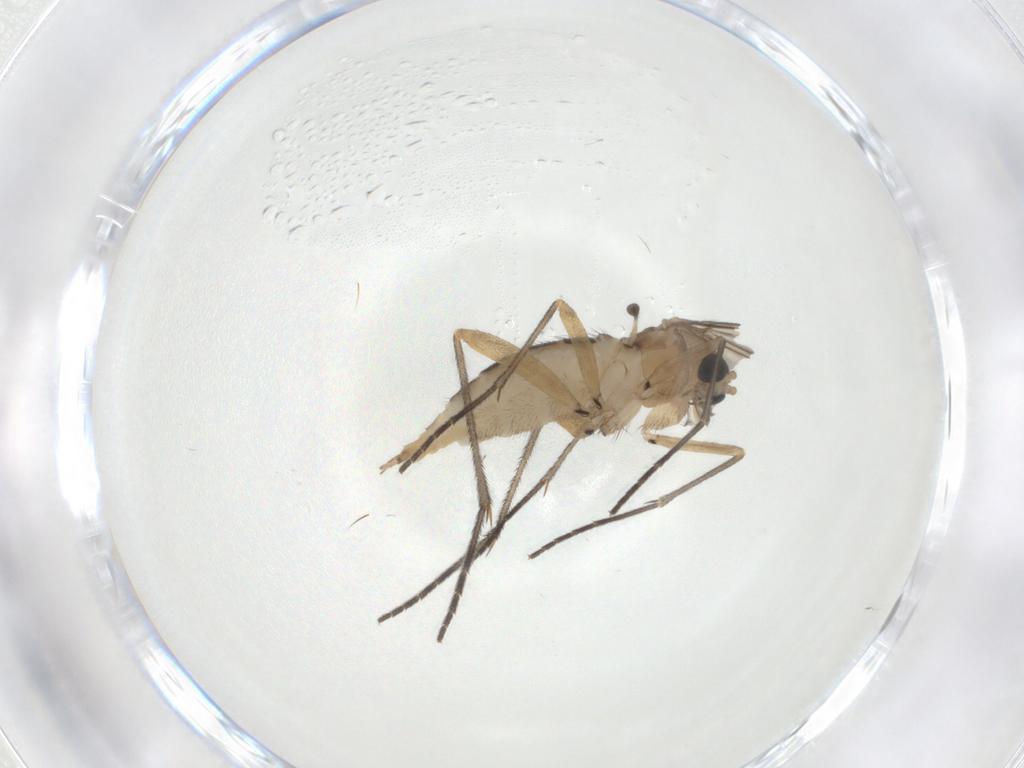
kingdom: Animalia
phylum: Arthropoda
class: Insecta
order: Diptera
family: Sciaridae
